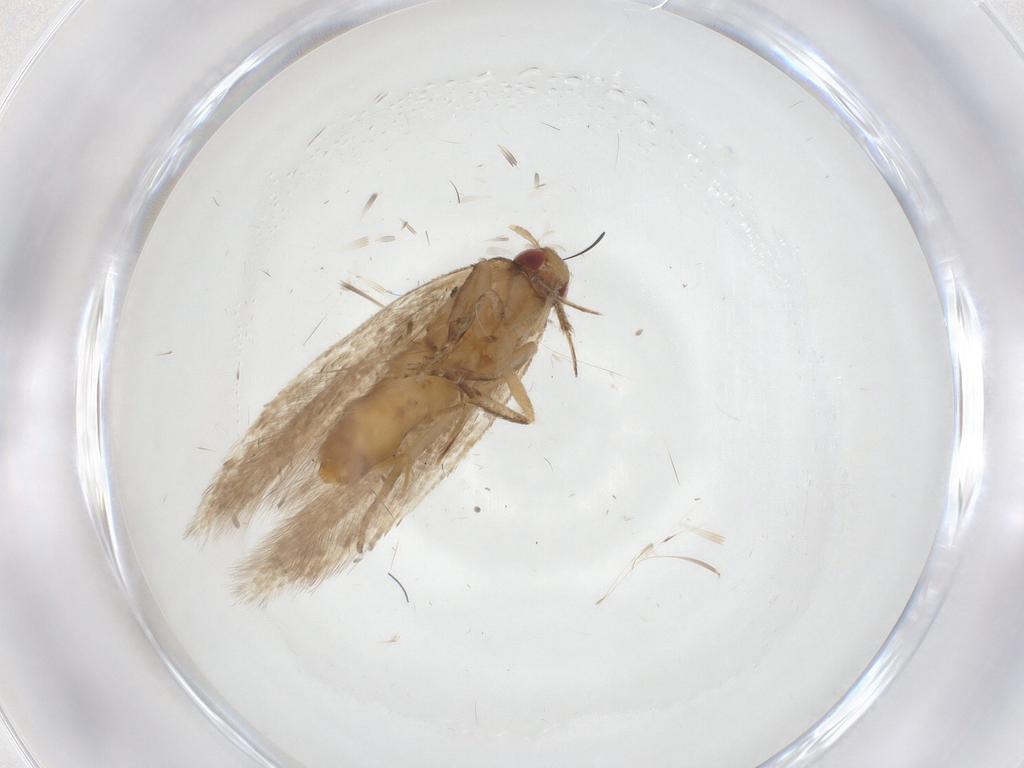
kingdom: Animalia
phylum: Arthropoda
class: Insecta
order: Lepidoptera
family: Gelechiidae
